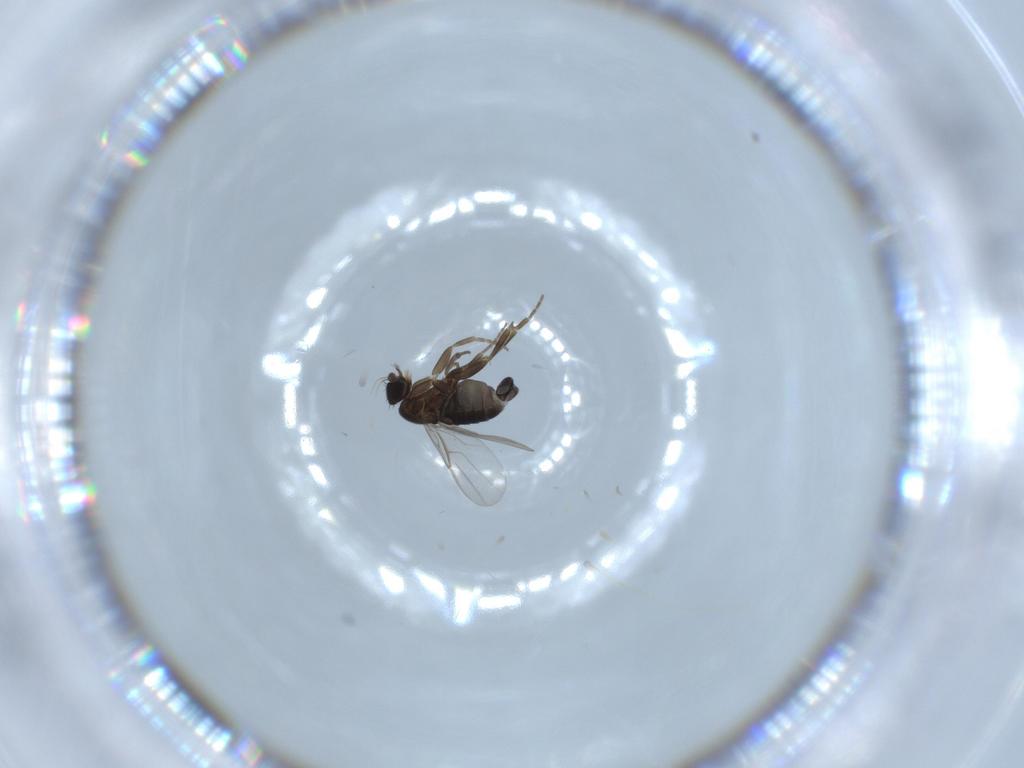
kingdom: Animalia
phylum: Arthropoda
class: Insecta
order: Diptera
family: Phoridae
